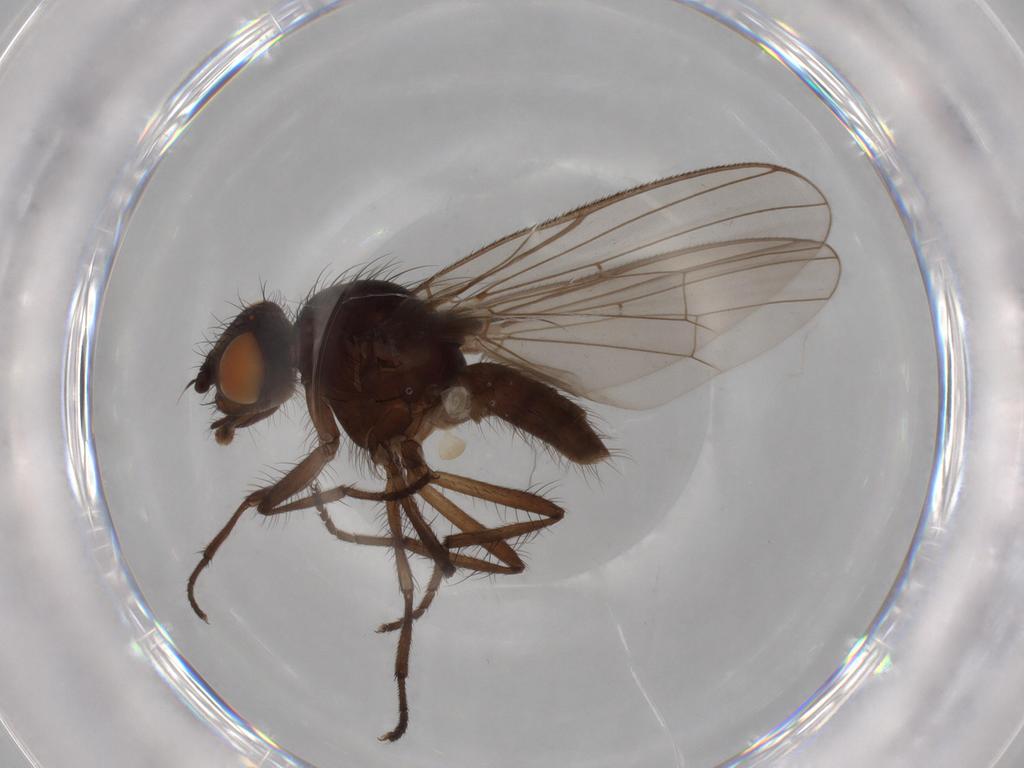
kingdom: Animalia
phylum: Arthropoda
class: Insecta
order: Diptera
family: Anthomyiidae
